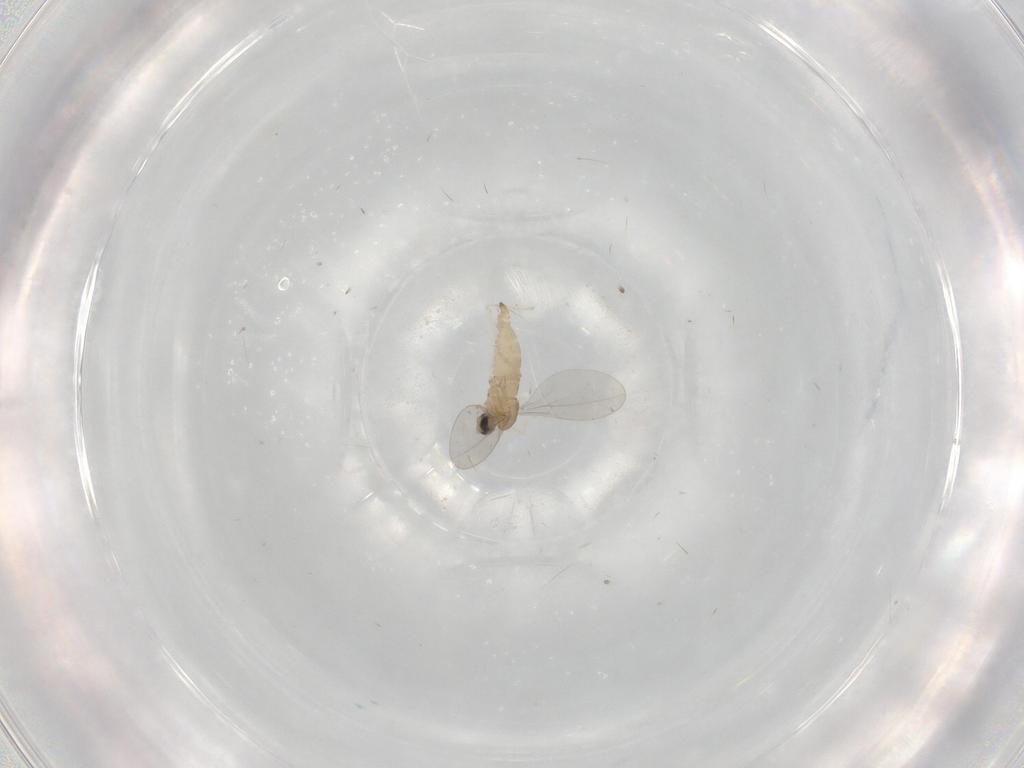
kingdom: Animalia
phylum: Arthropoda
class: Insecta
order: Diptera
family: Cecidomyiidae
